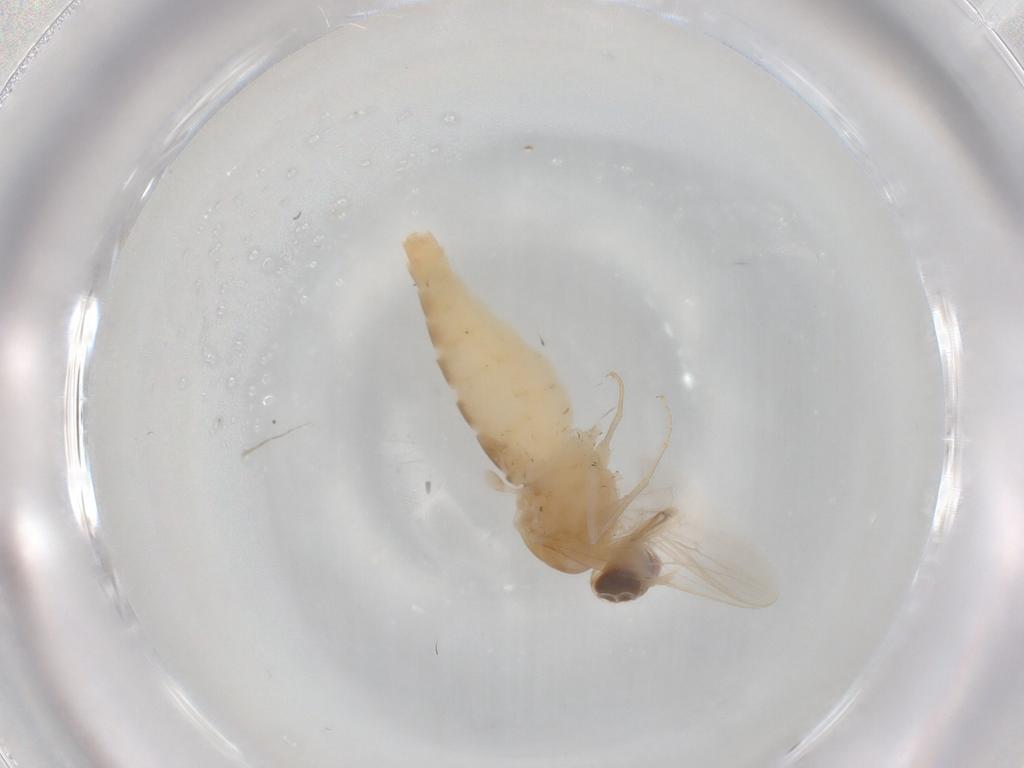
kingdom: Animalia
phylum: Arthropoda
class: Insecta
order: Diptera
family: Scenopinidae
